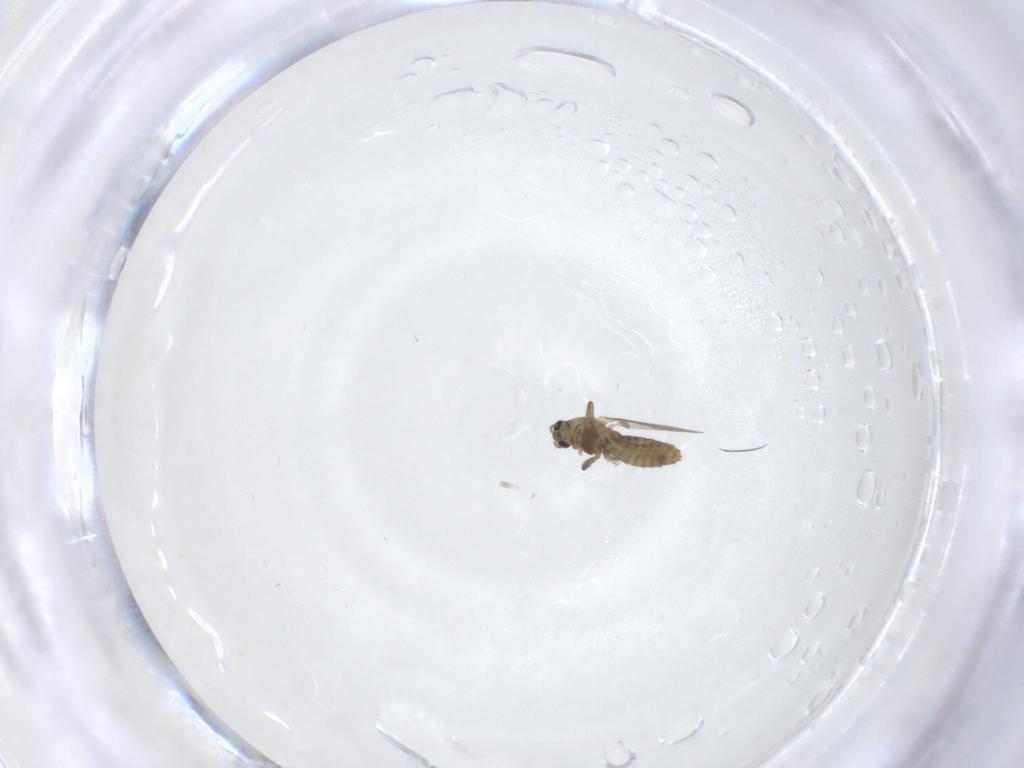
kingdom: Animalia
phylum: Arthropoda
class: Insecta
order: Diptera
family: Chironomidae
